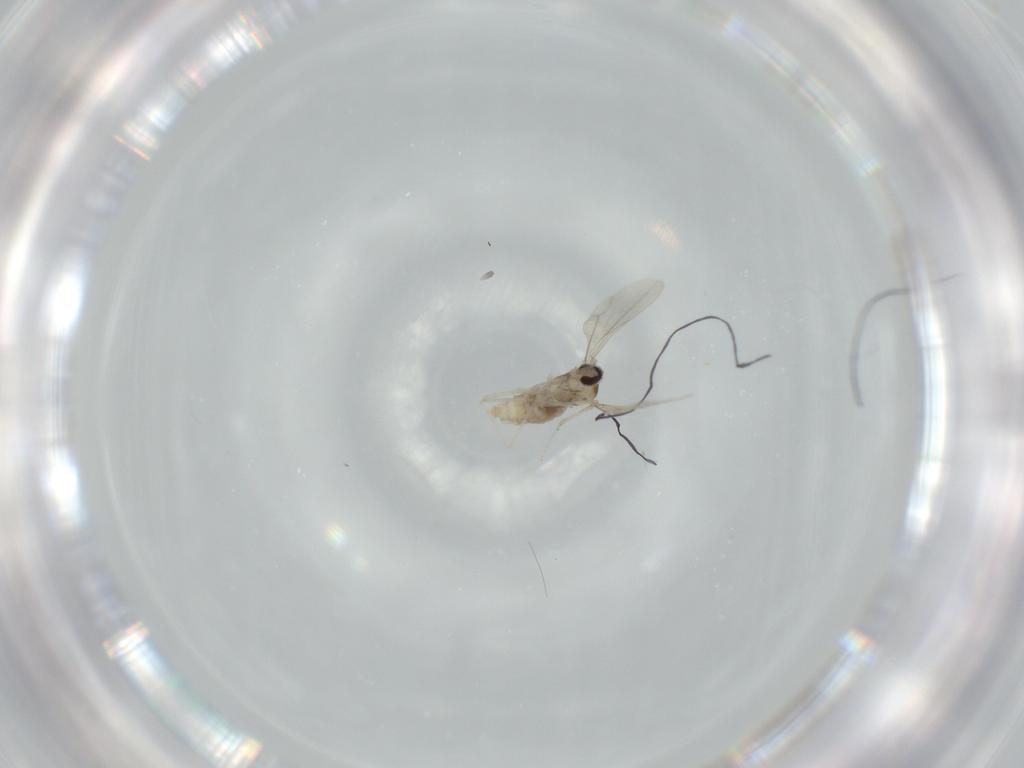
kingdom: Animalia
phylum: Arthropoda
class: Insecta
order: Diptera
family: Cecidomyiidae
